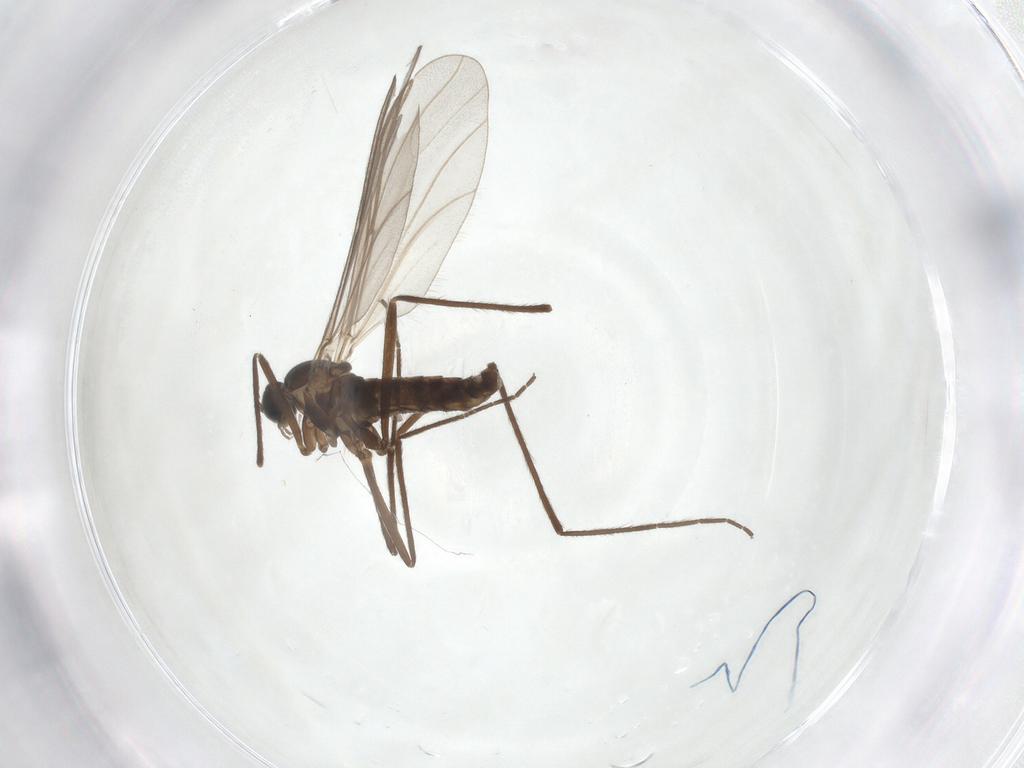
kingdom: Animalia
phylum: Arthropoda
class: Insecta
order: Diptera
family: Cecidomyiidae
